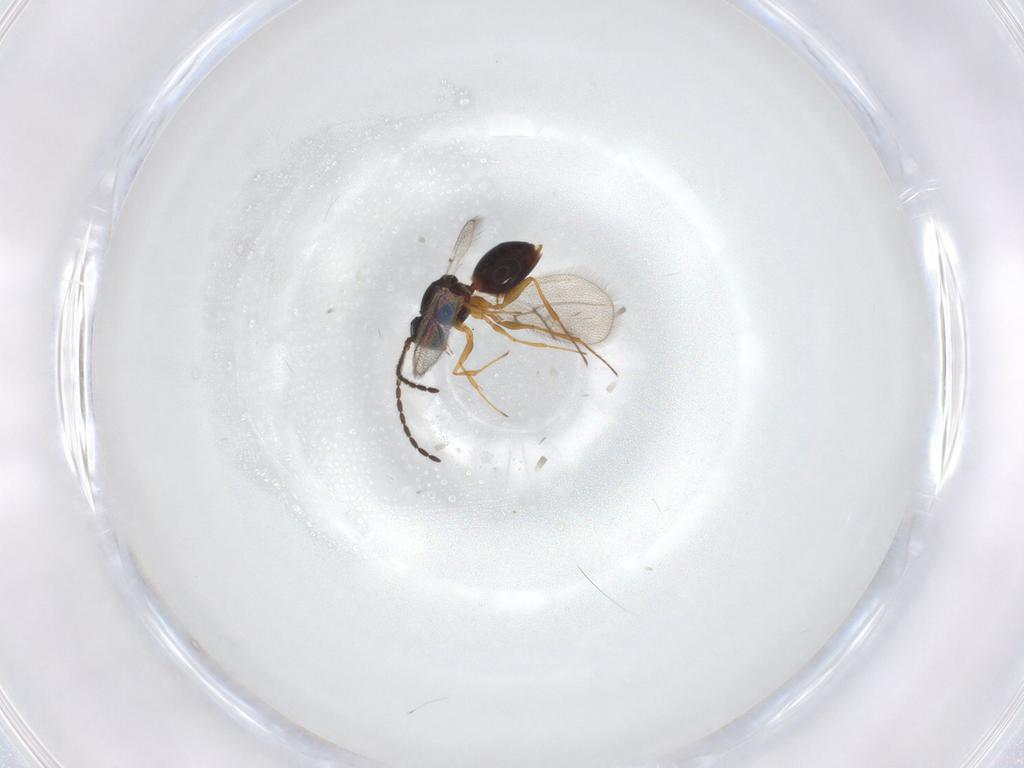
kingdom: Animalia
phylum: Arthropoda
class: Insecta
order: Hymenoptera
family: Figitidae
